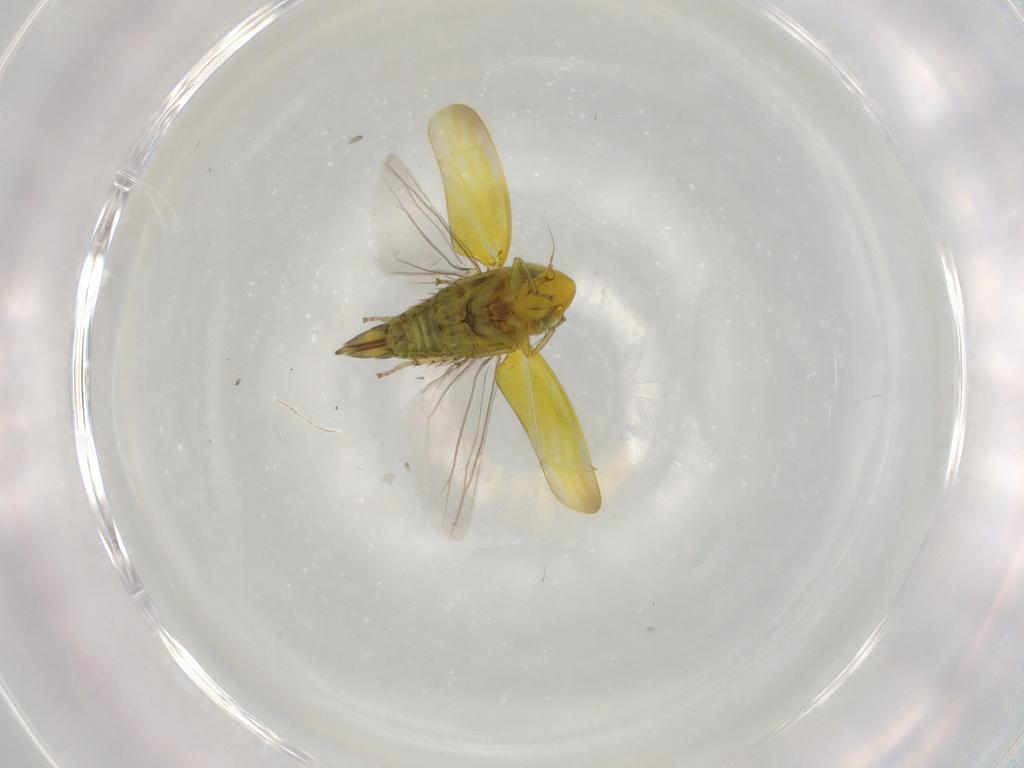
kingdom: Animalia
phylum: Arthropoda
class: Insecta
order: Hemiptera
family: Cicadellidae
